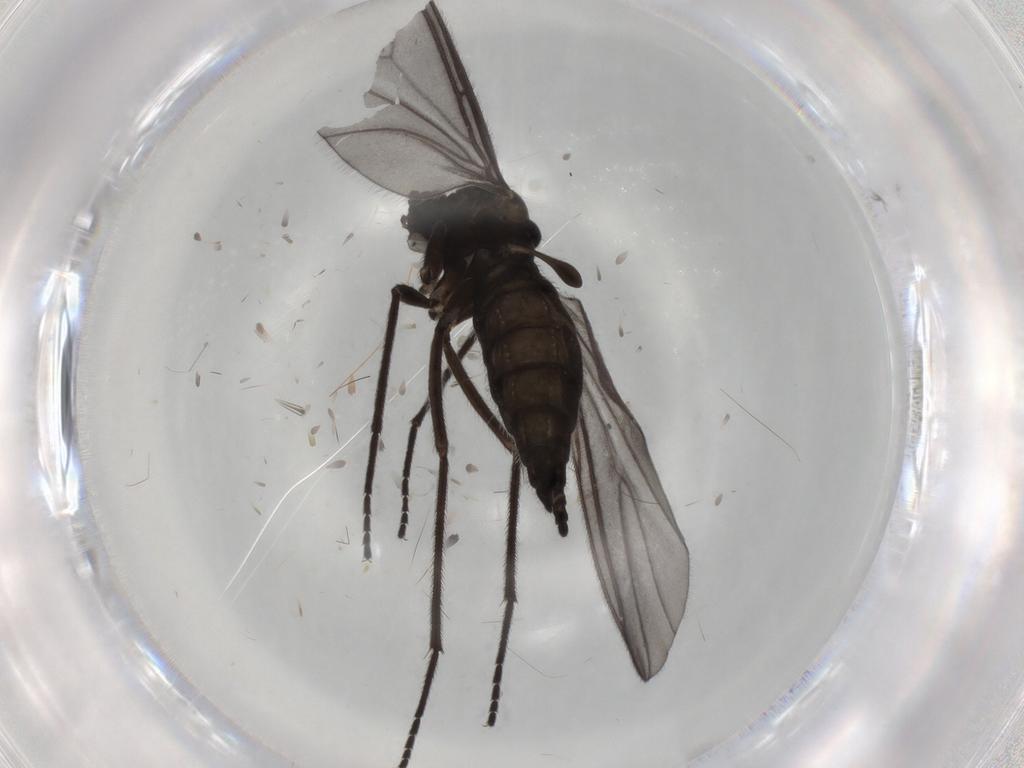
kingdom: Animalia
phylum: Arthropoda
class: Insecta
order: Diptera
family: Sciaridae
